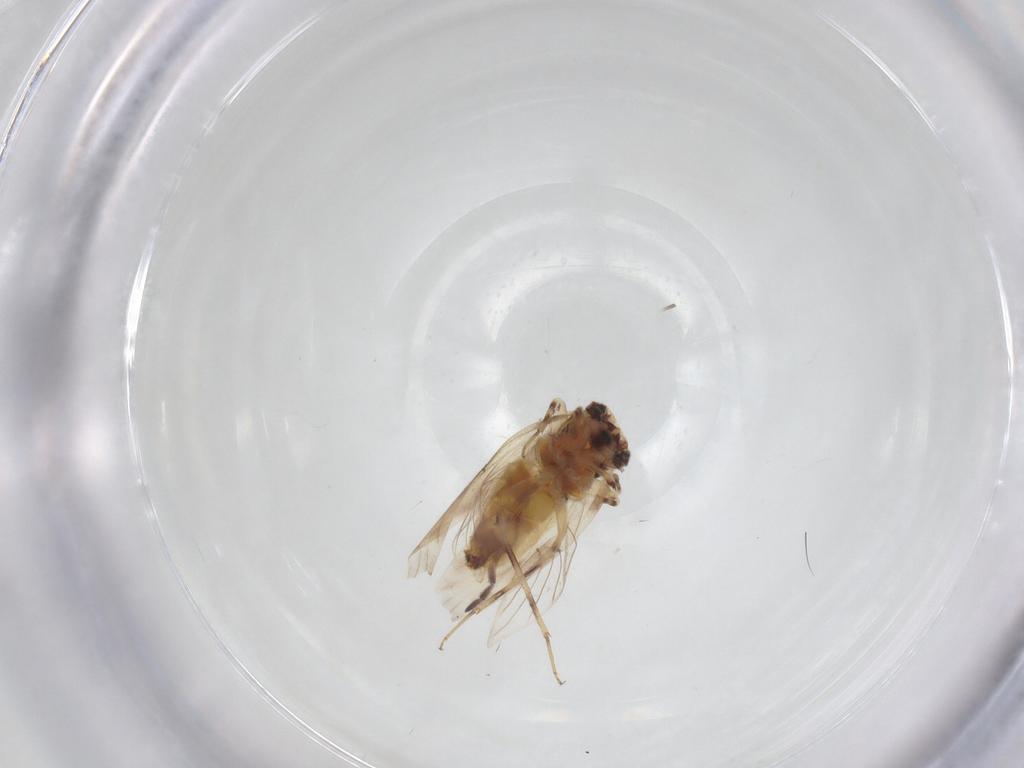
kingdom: Animalia
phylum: Arthropoda
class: Insecta
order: Psocodea
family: Lepidopsocidae
